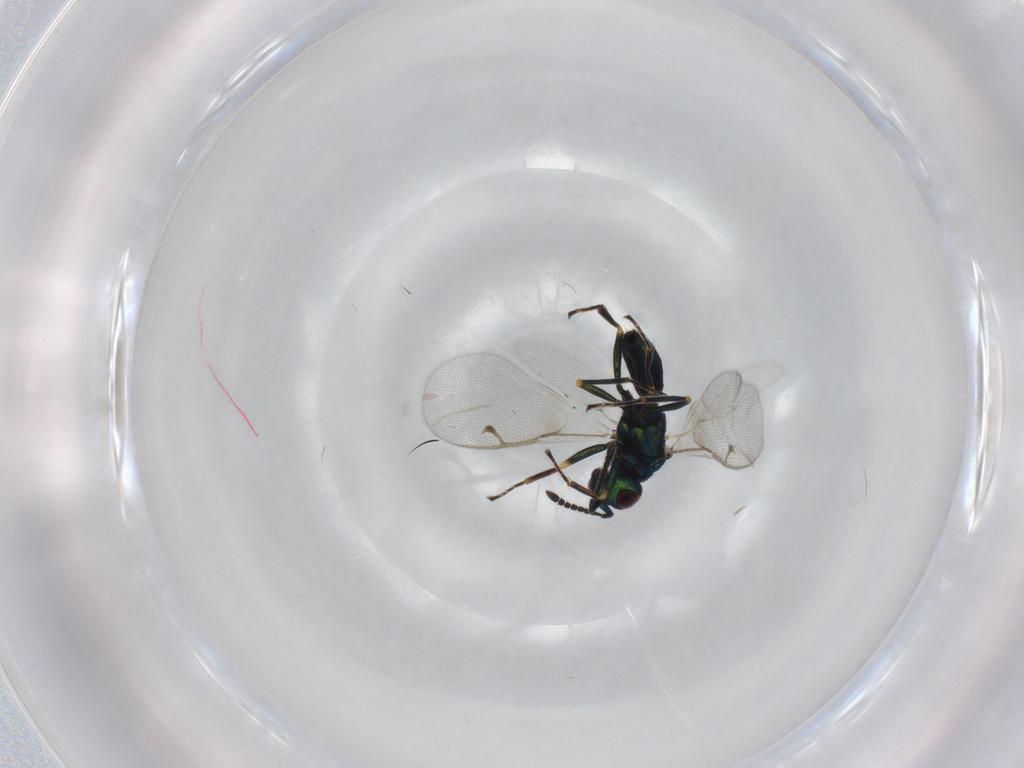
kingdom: Animalia
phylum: Arthropoda
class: Insecta
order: Hymenoptera
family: Pteromalidae
